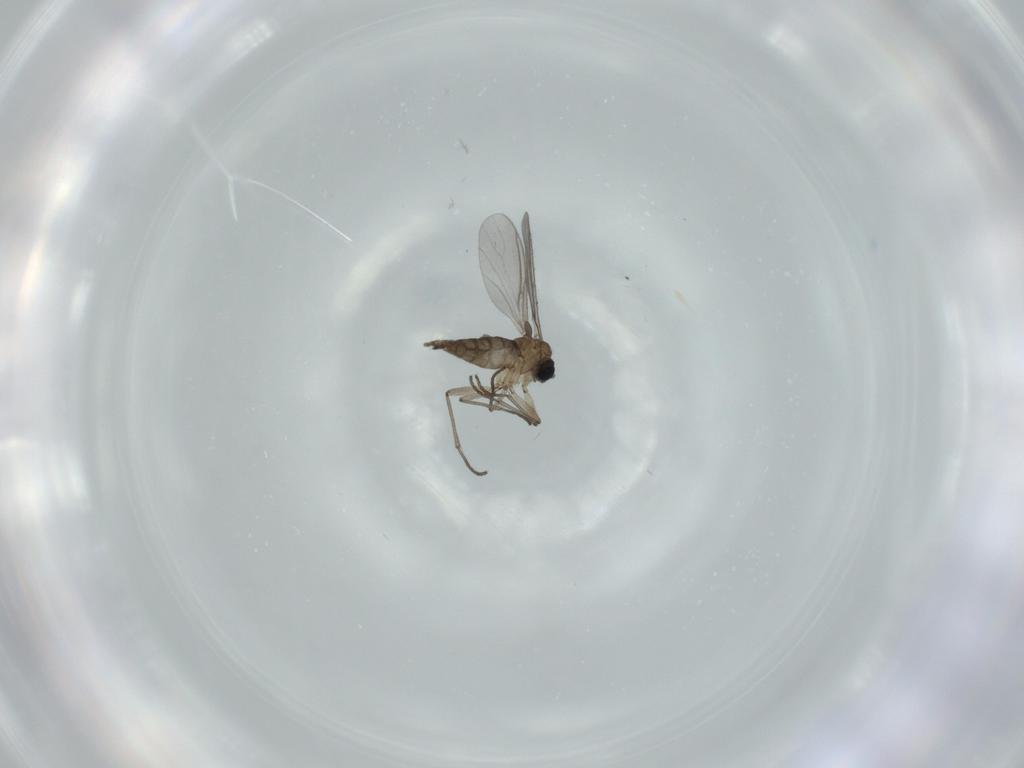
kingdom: Animalia
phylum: Arthropoda
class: Insecta
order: Diptera
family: Sciaridae
